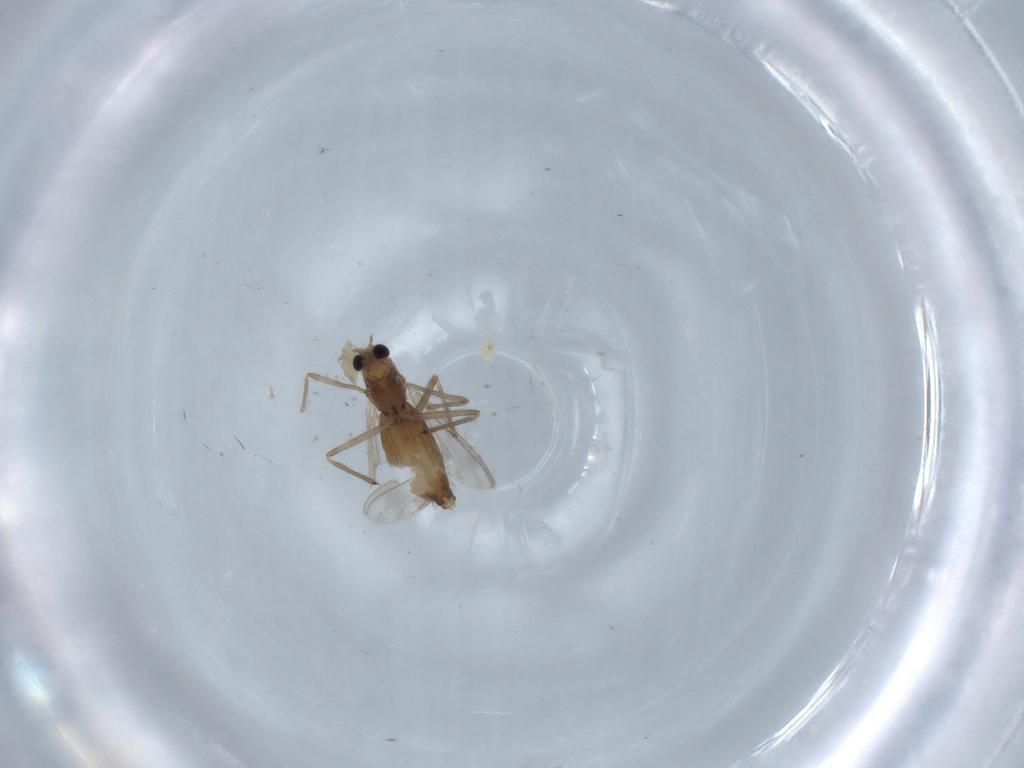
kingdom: Animalia
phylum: Arthropoda
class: Insecta
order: Diptera
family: Chironomidae
